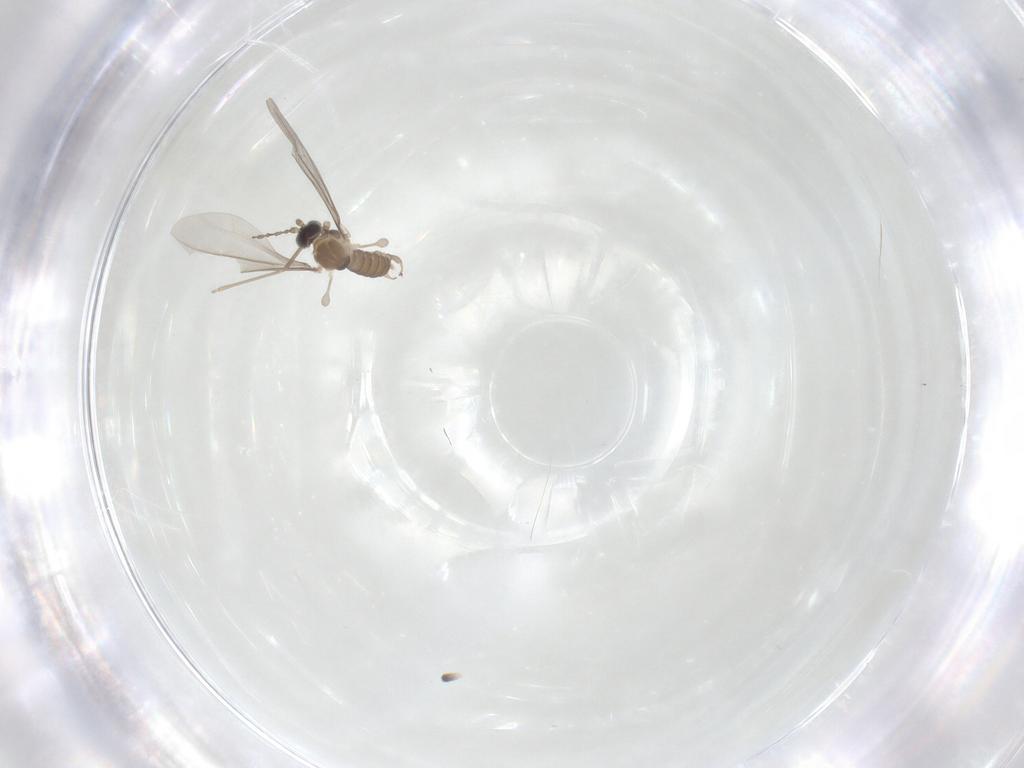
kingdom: Animalia
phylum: Arthropoda
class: Insecta
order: Diptera
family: Cecidomyiidae
